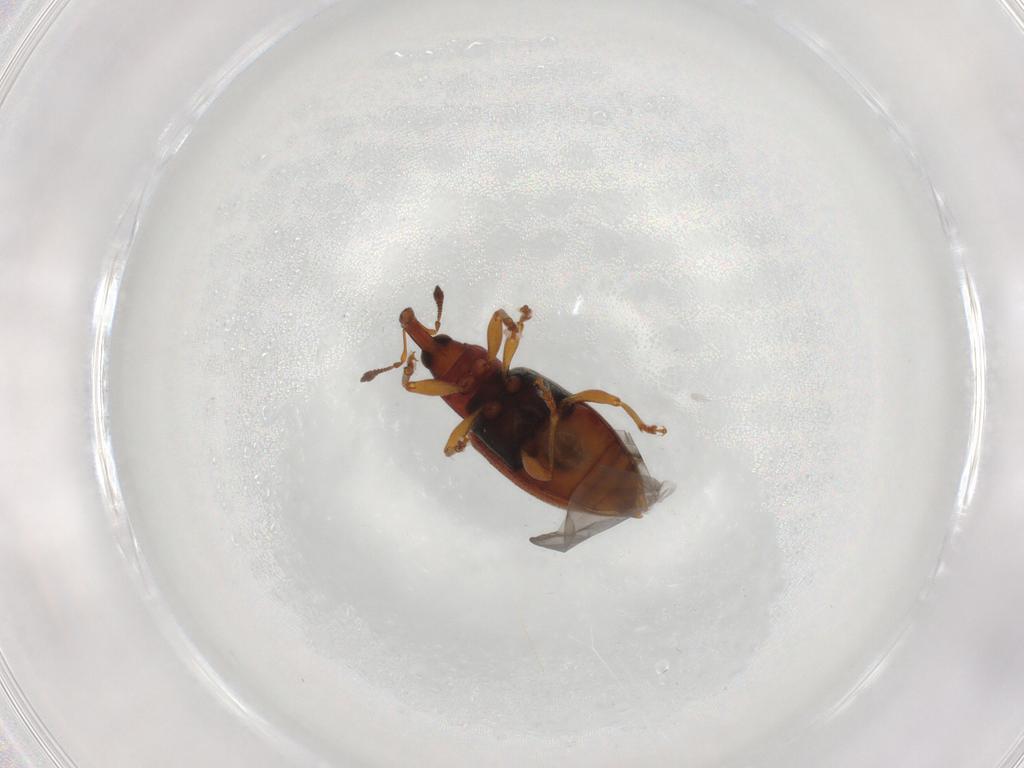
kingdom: Animalia
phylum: Arthropoda
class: Insecta
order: Coleoptera
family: Curculionidae
